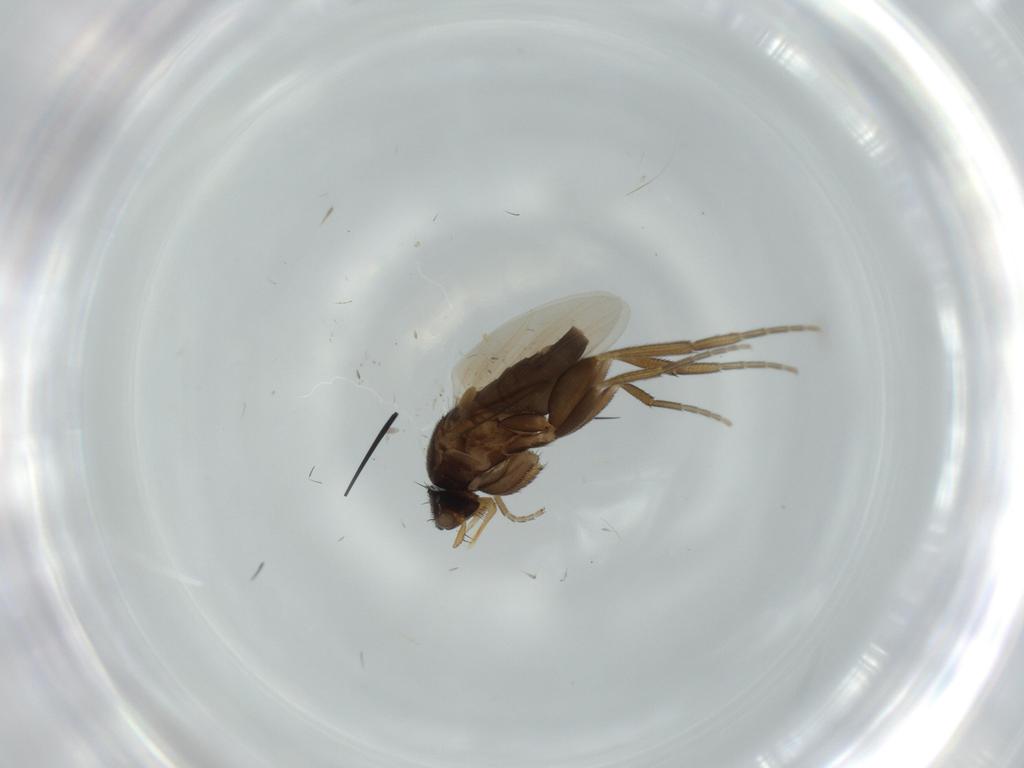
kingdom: Animalia
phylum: Arthropoda
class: Insecta
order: Diptera
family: Phoridae
